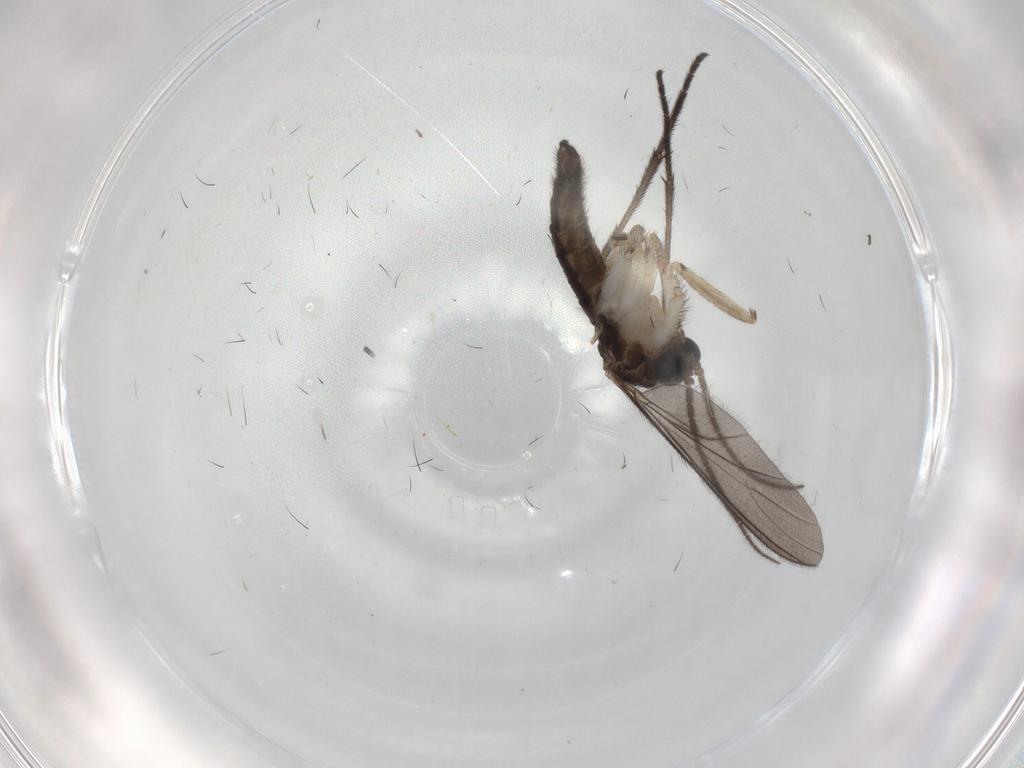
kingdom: Animalia
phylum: Arthropoda
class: Insecta
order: Diptera
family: Sciaridae
